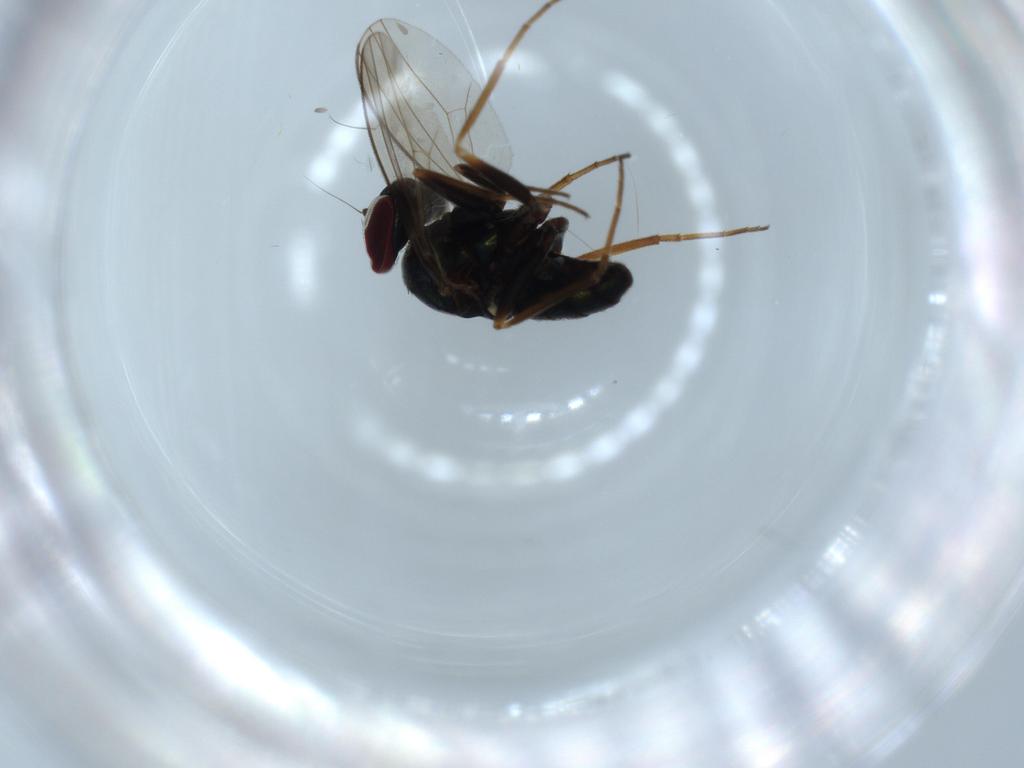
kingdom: Animalia
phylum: Arthropoda
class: Insecta
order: Diptera
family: Dolichopodidae
